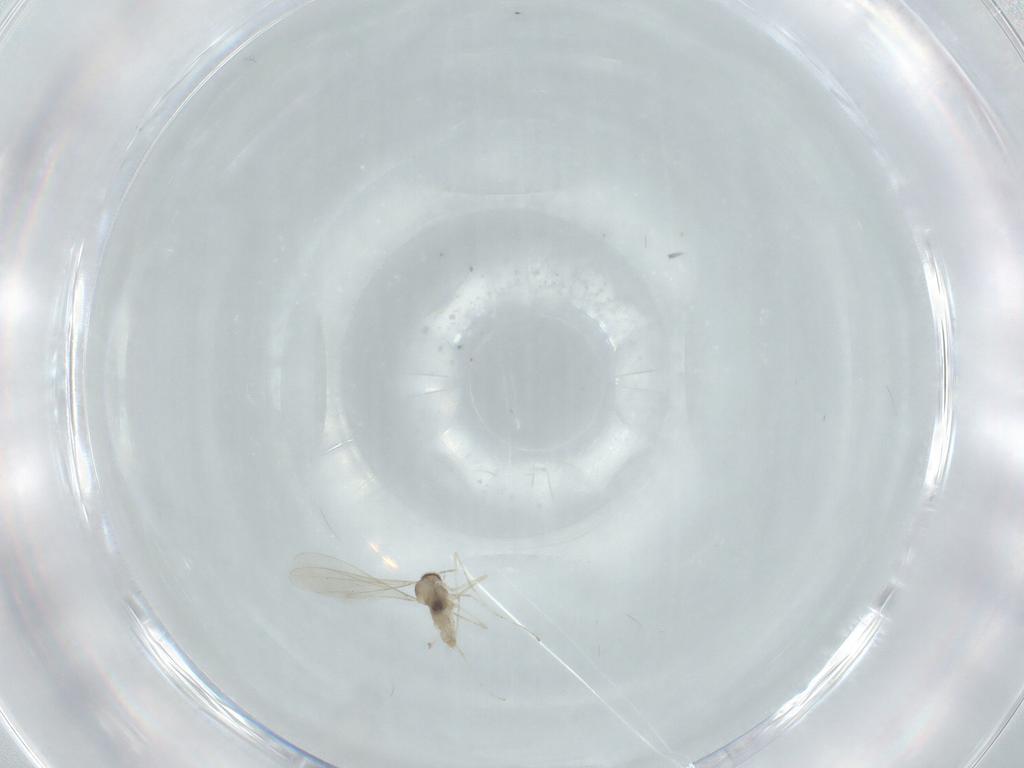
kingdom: Animalia
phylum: Arthropoda
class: Insecta
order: Diptera
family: Cecidomyiidae
